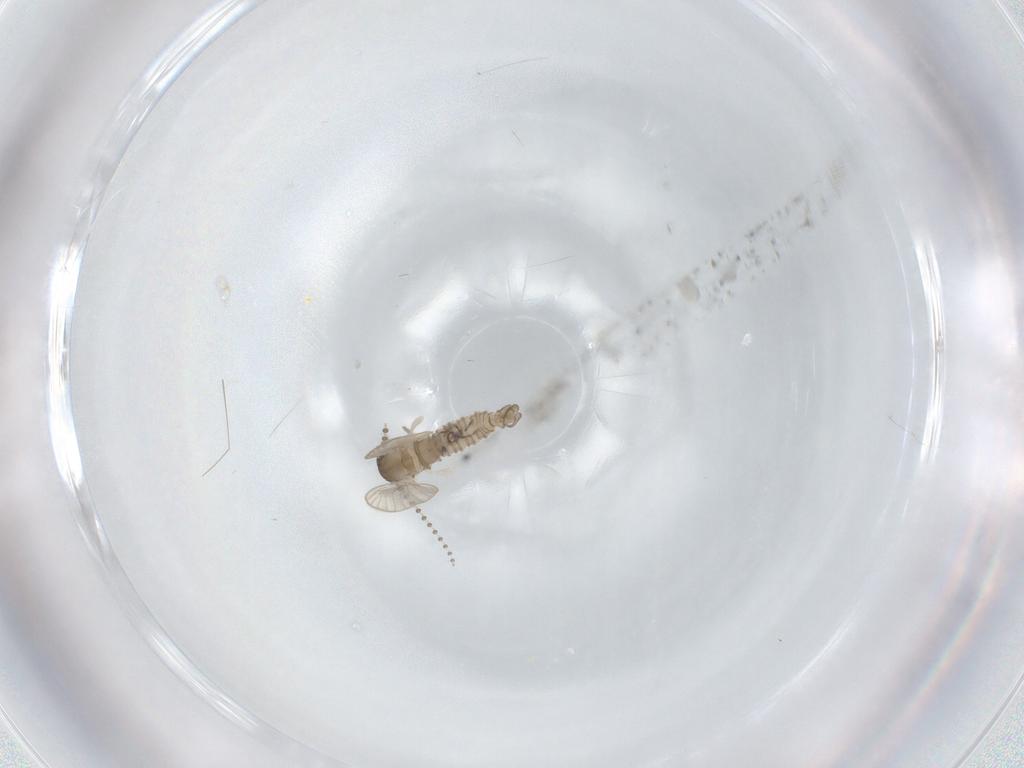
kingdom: Animalia
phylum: Arthropoda
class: Insecta
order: Diptera
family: Psychodidae
